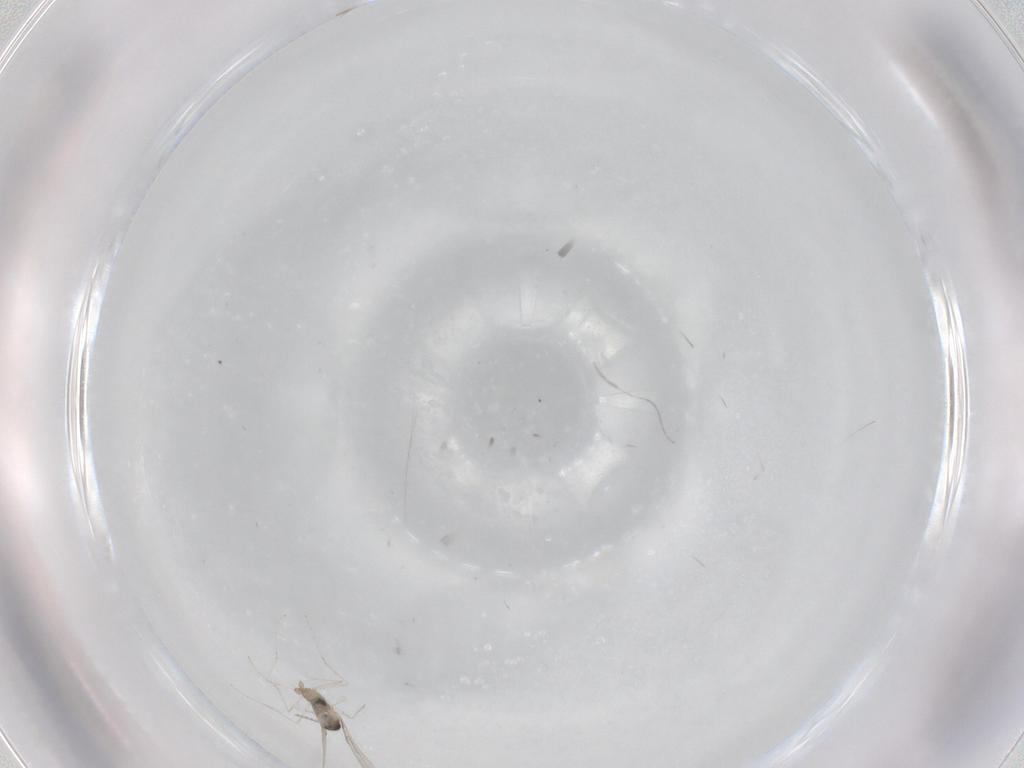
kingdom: Animalia
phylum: Arthropoda
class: Insecta
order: Diptera
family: Cecidomyiidae
